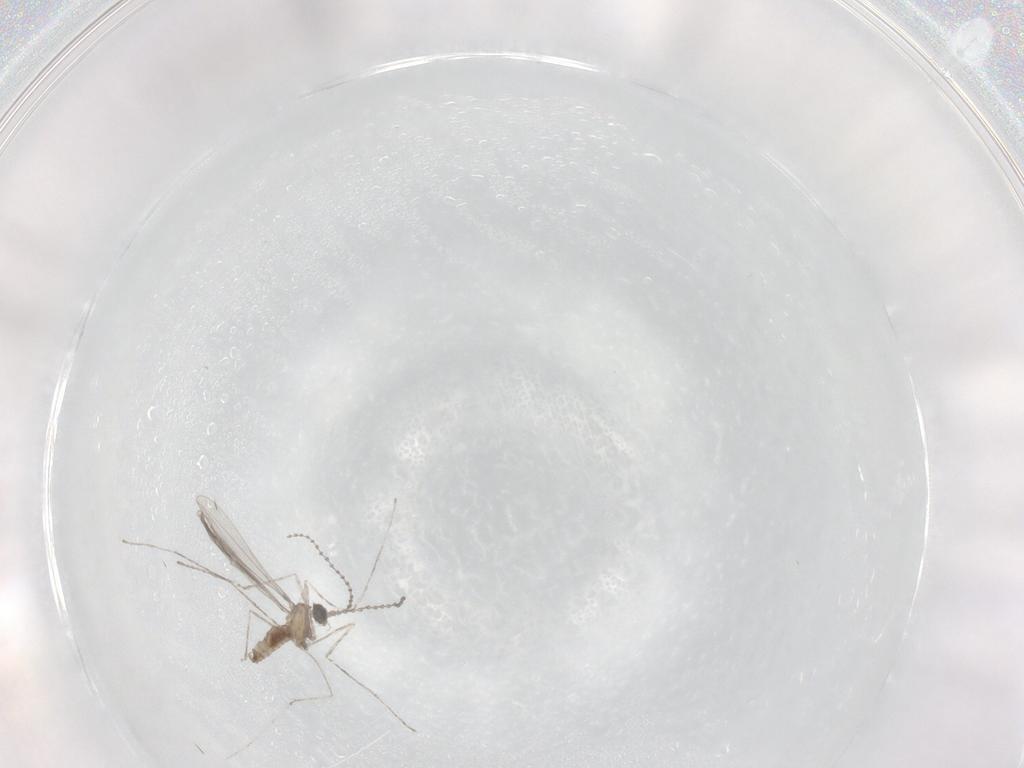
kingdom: Animalia
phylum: Arthropoda
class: Insecta
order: Diptera
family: Cecidomyiidae
